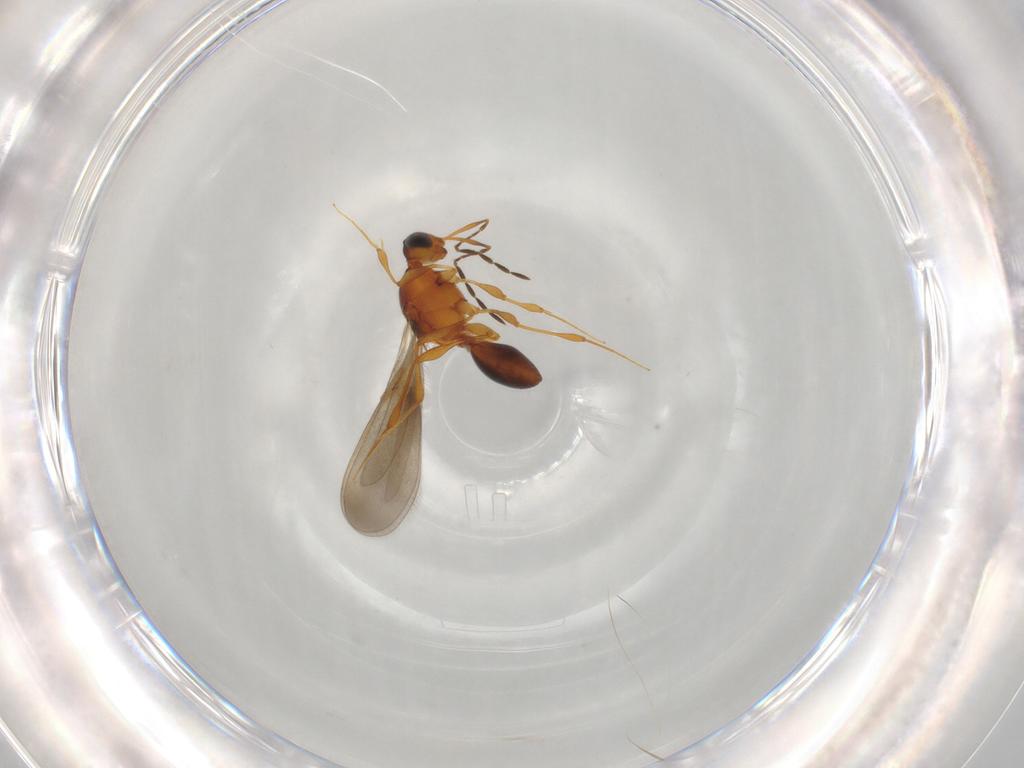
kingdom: Animalia
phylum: Arthropoda
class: Insecta
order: Hymenoptera
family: Platygastridae
